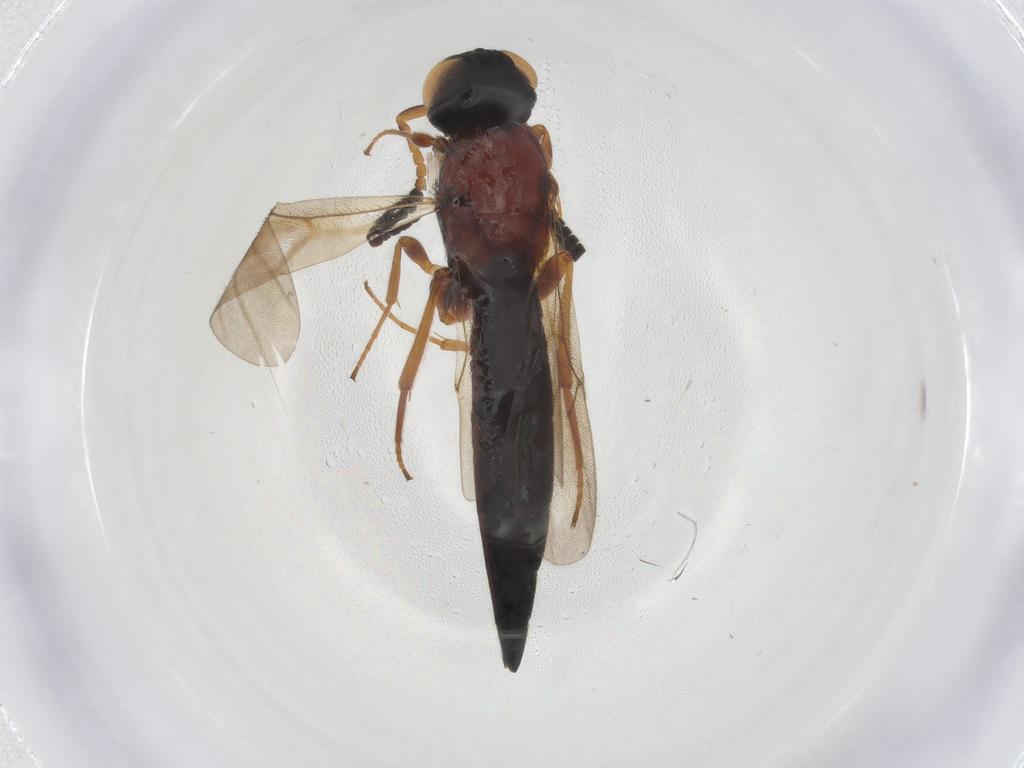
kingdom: Animalia
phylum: Arthropoda
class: Insecta
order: Hymenoptera
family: Scelionidae
